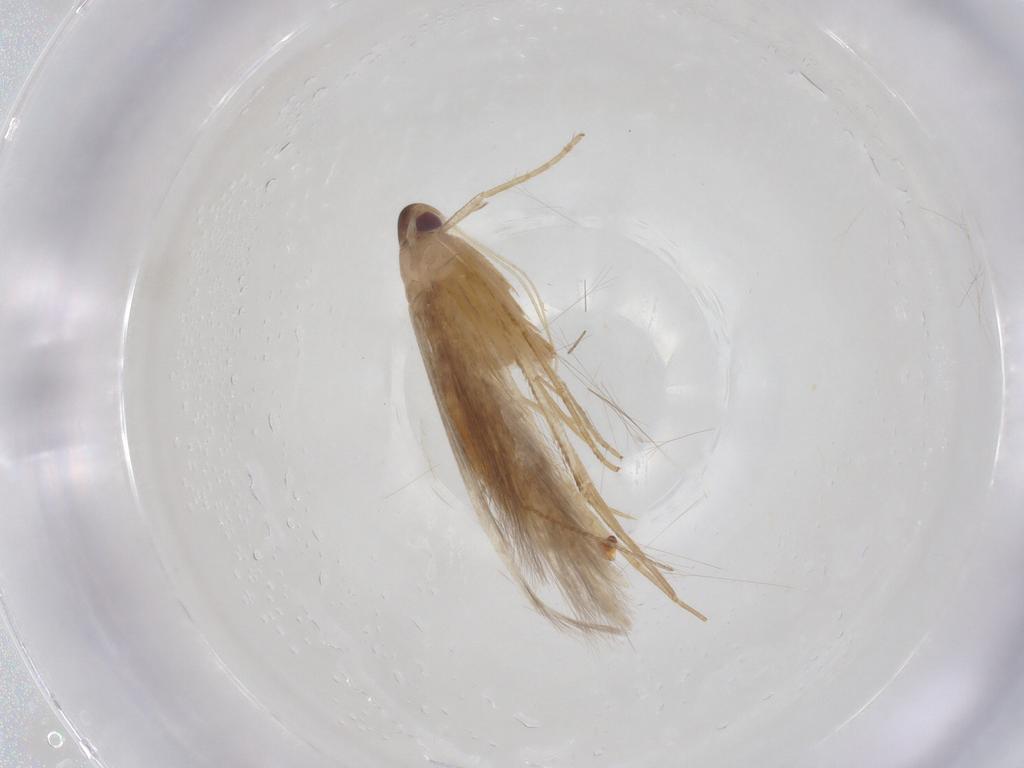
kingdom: Animalia
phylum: Arthropoda
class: Insecta
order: Lepidoptera
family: Cosmopterigidae
